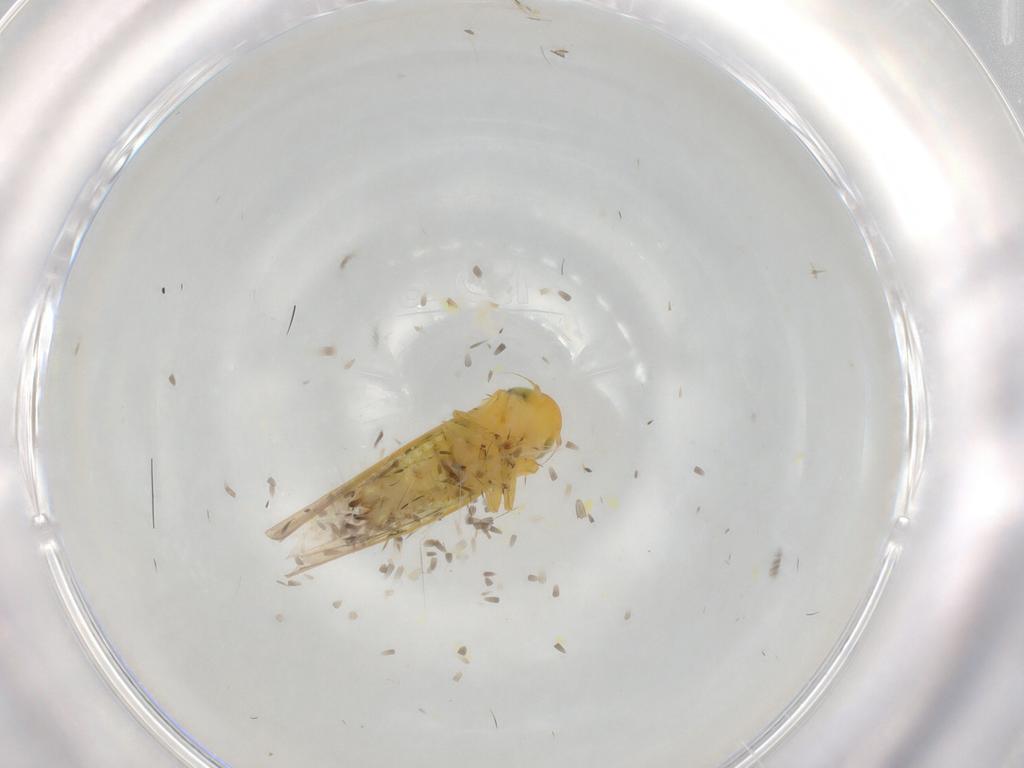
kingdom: Animalia
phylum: Arthropoda
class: Insecta
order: Hemiptera
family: Cicadellidae
